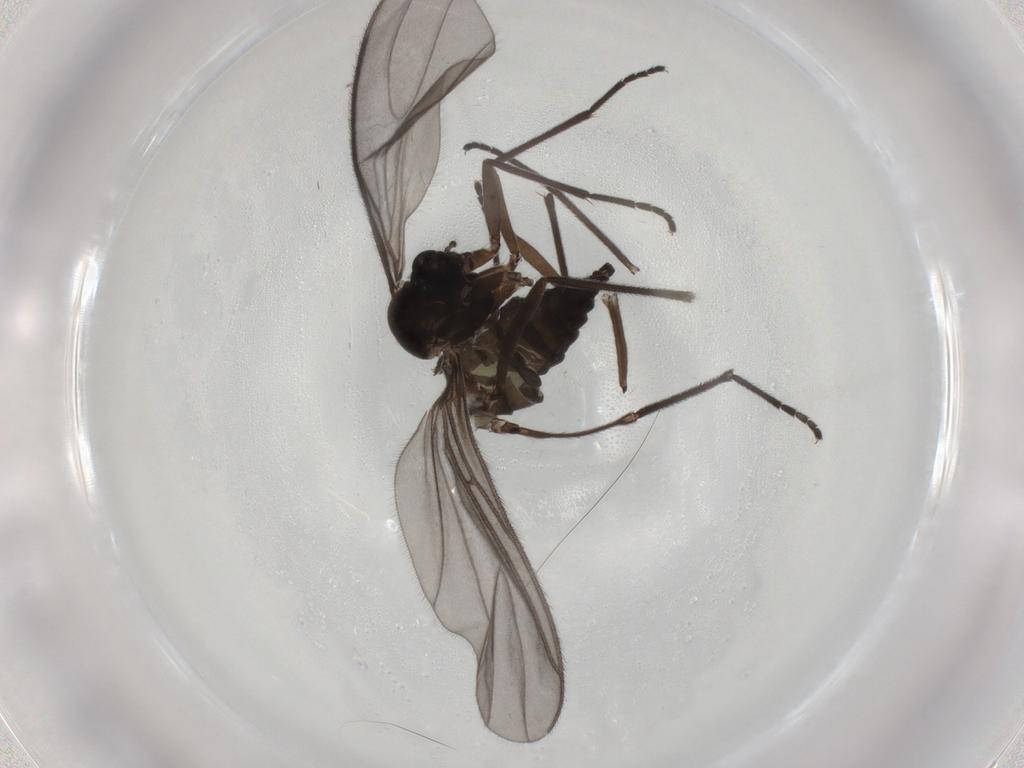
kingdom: Animalia
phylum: Arthropoda
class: Insecta
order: Diptera
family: Sciaridae
